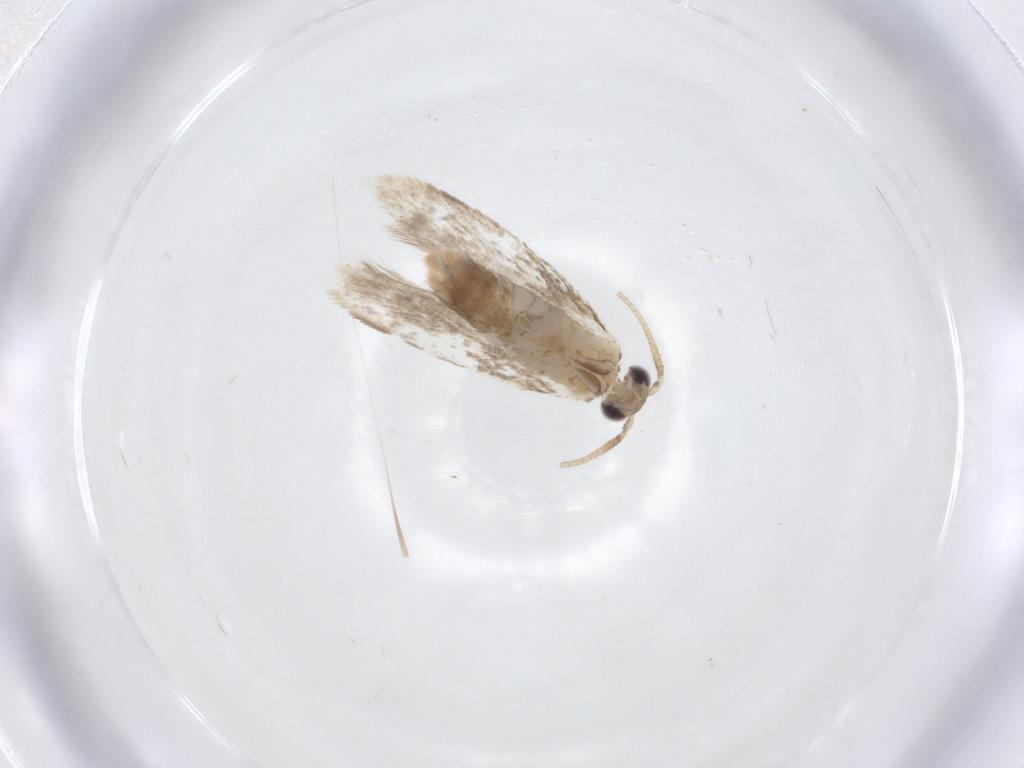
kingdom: Animalia
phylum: Arthropoda
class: Insecta
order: Lepidoptera
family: Dryadaulidae
